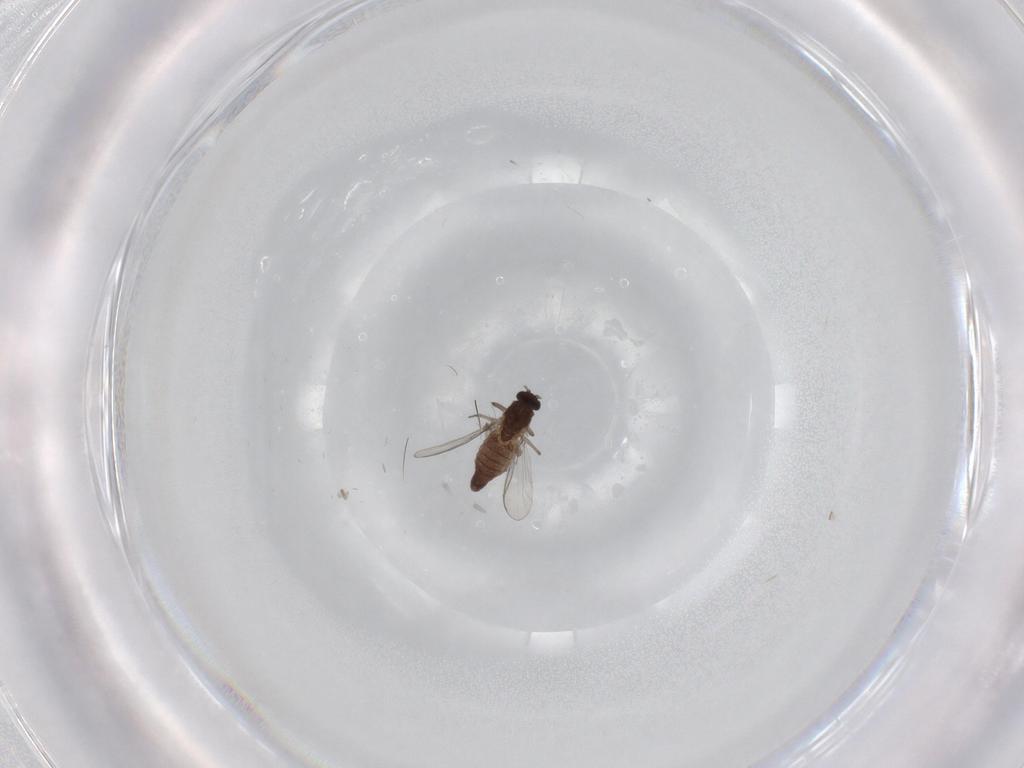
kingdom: Animalia
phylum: Arthropoda
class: Insecta
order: Diptera
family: Chironomidae
